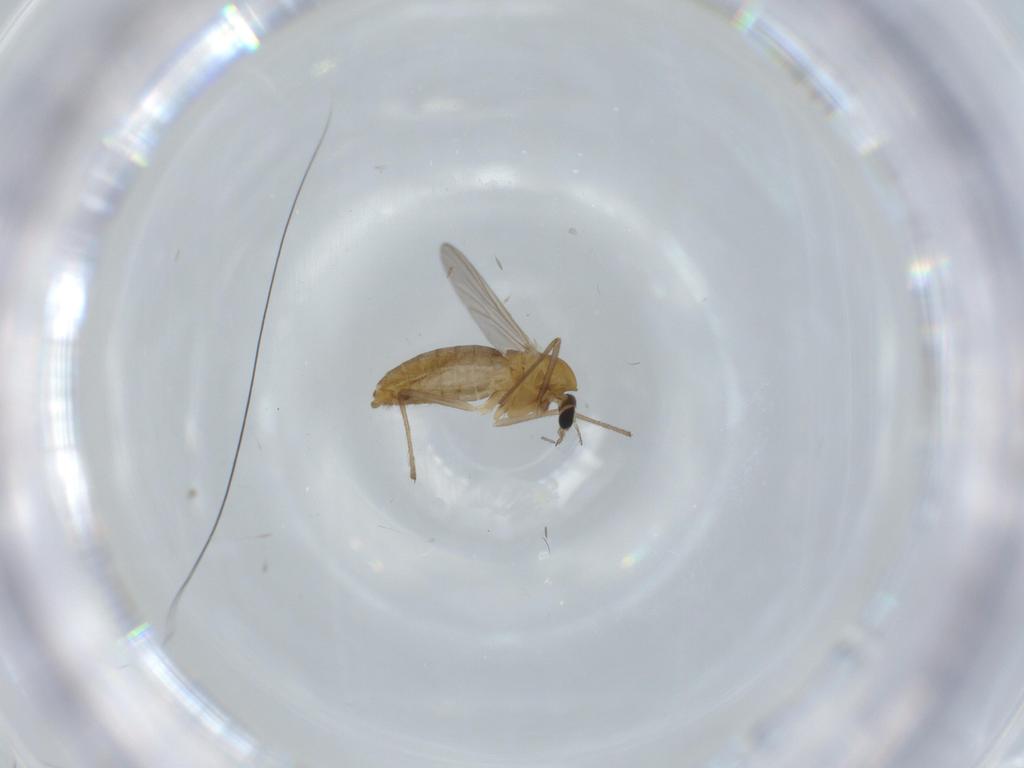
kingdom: Animalia
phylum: Arthropoda
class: Insecta
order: Diptera
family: Chironomidae
